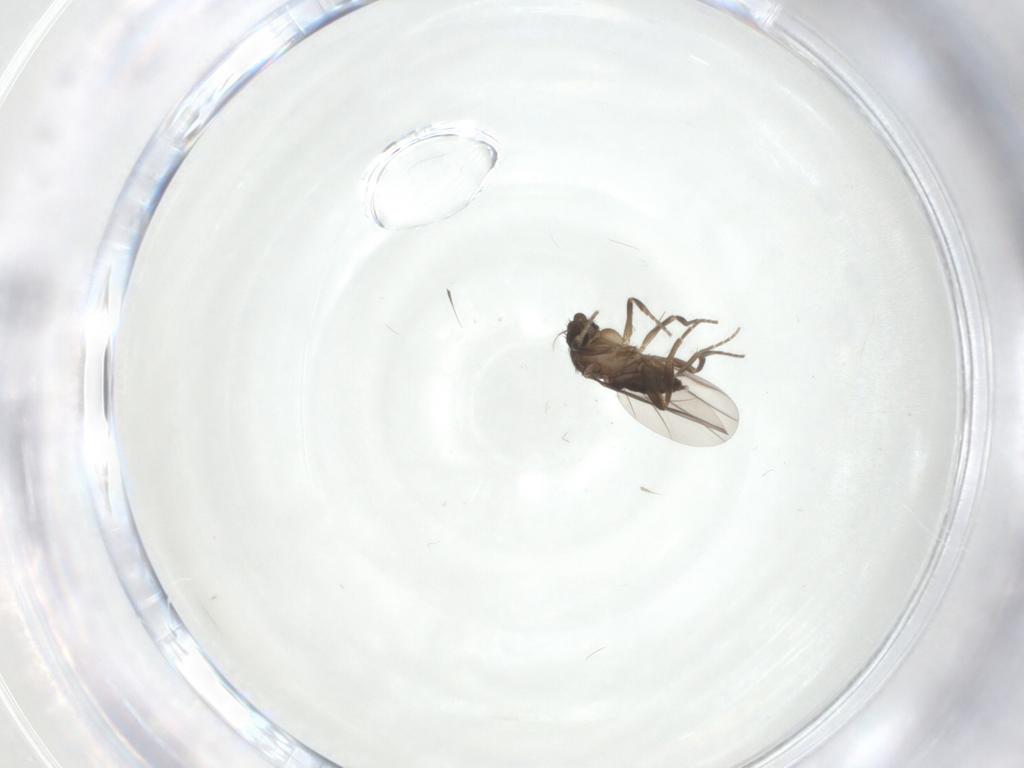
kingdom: Animalia
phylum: Arthropoda
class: Insecta
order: Diptera
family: Phoridae
